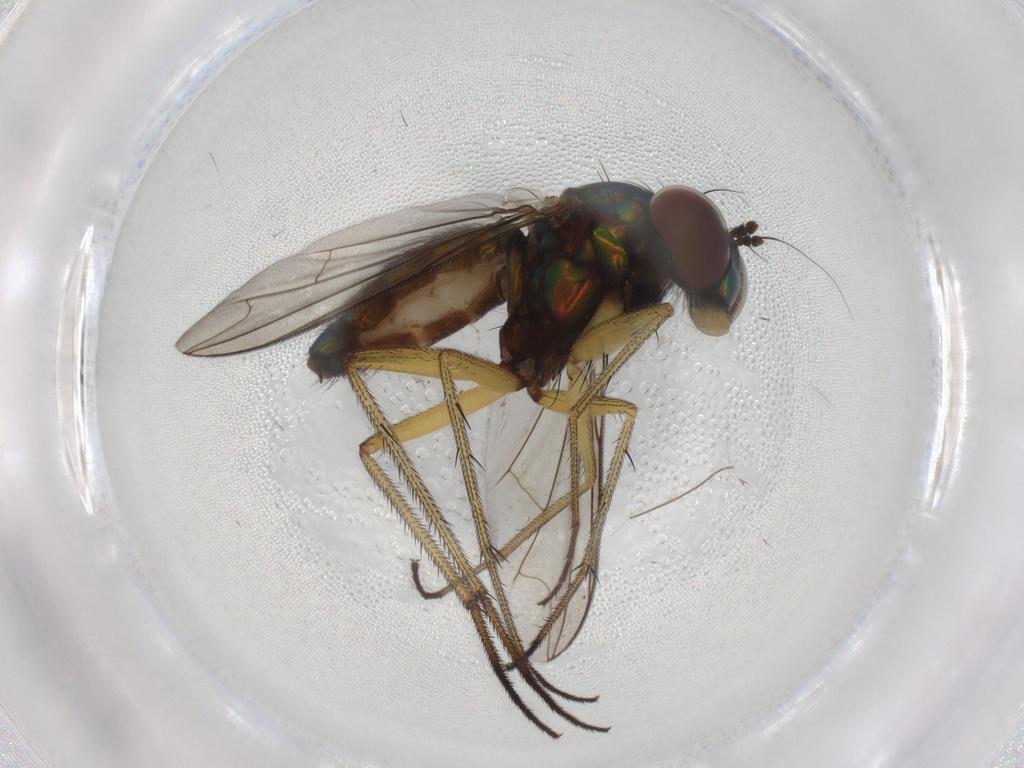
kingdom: Animalia
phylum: Arthropoda
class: Insecta
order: Diptera
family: Dolichopodidae
